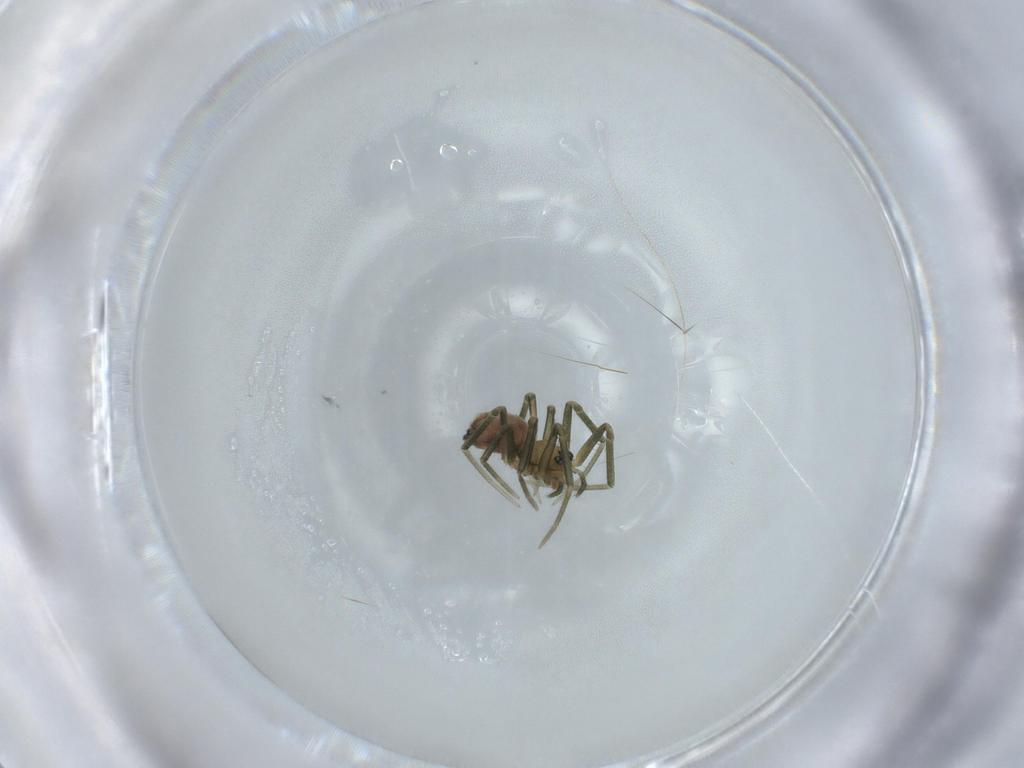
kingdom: Animalia
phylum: Arthropoda
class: Arachnida
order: Araneae
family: Linyphiidae
